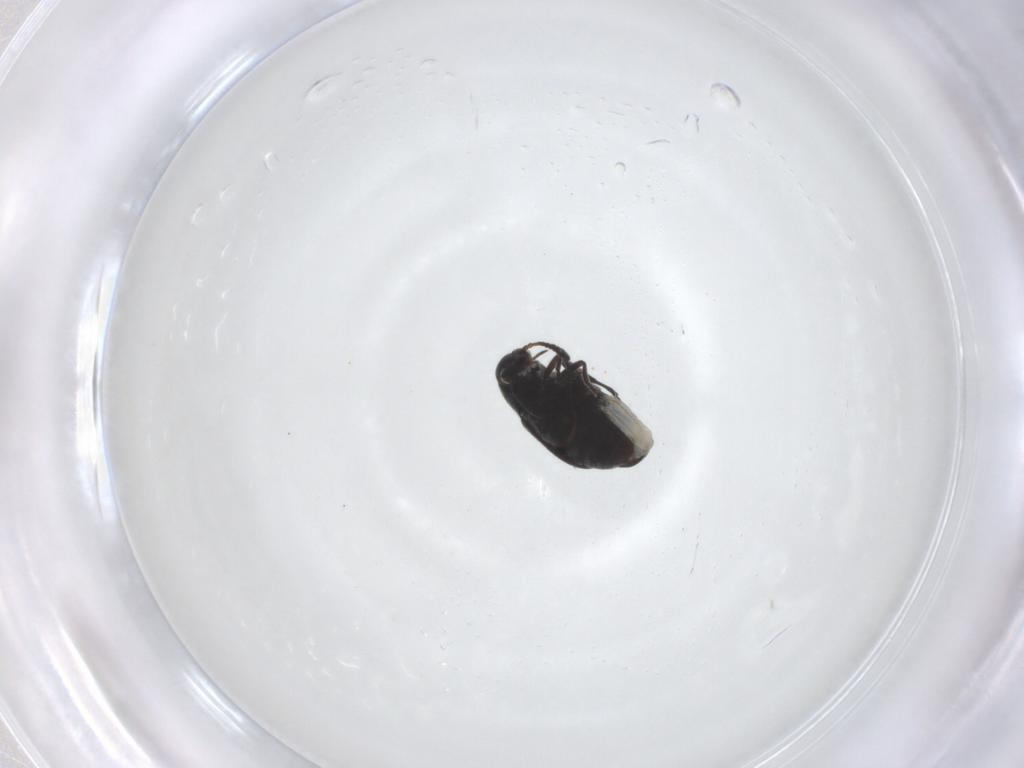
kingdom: Animalia
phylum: Arthropoda
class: Insecta
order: Coleoptera
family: Chrysomelidae
